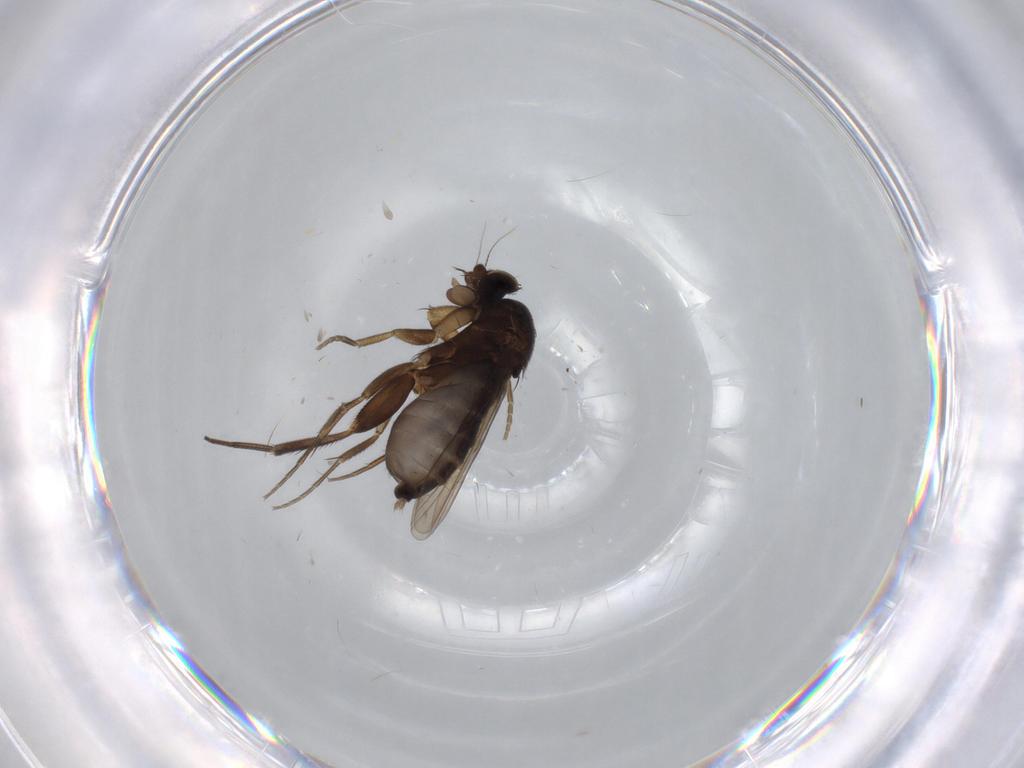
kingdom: Animalia
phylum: Arthropoda
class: Insecta
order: Diptera
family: Phoridae
